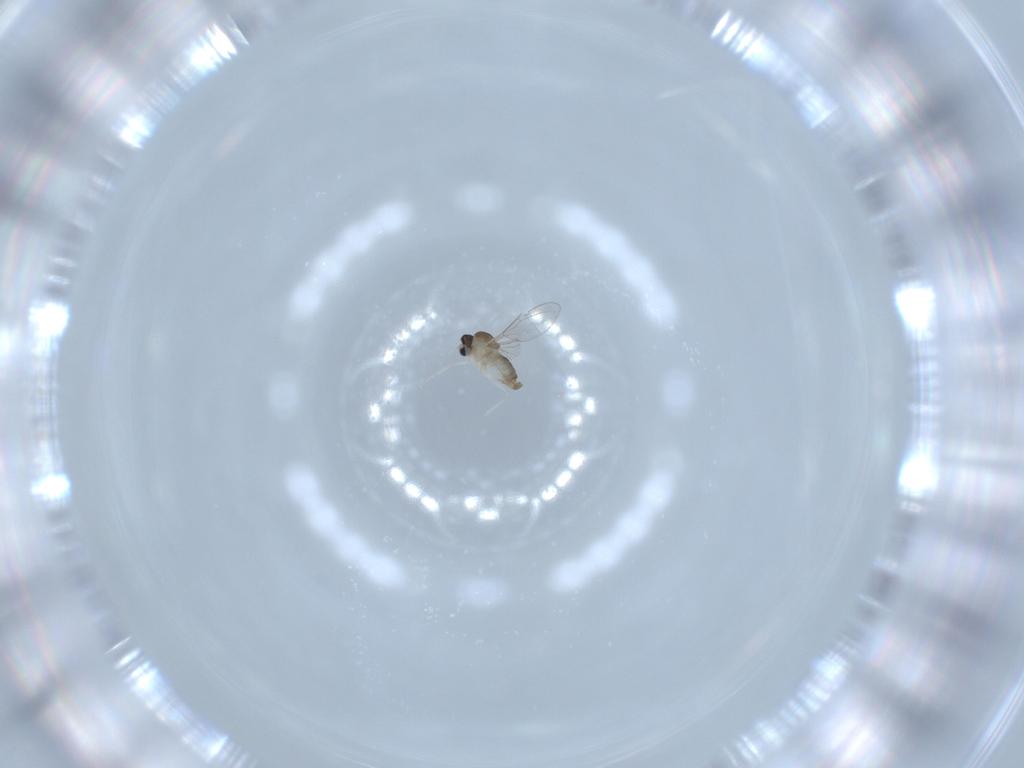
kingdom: Animalia
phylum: Arthropoda
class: Insecta
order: Diptera
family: Cecidomyiidae
